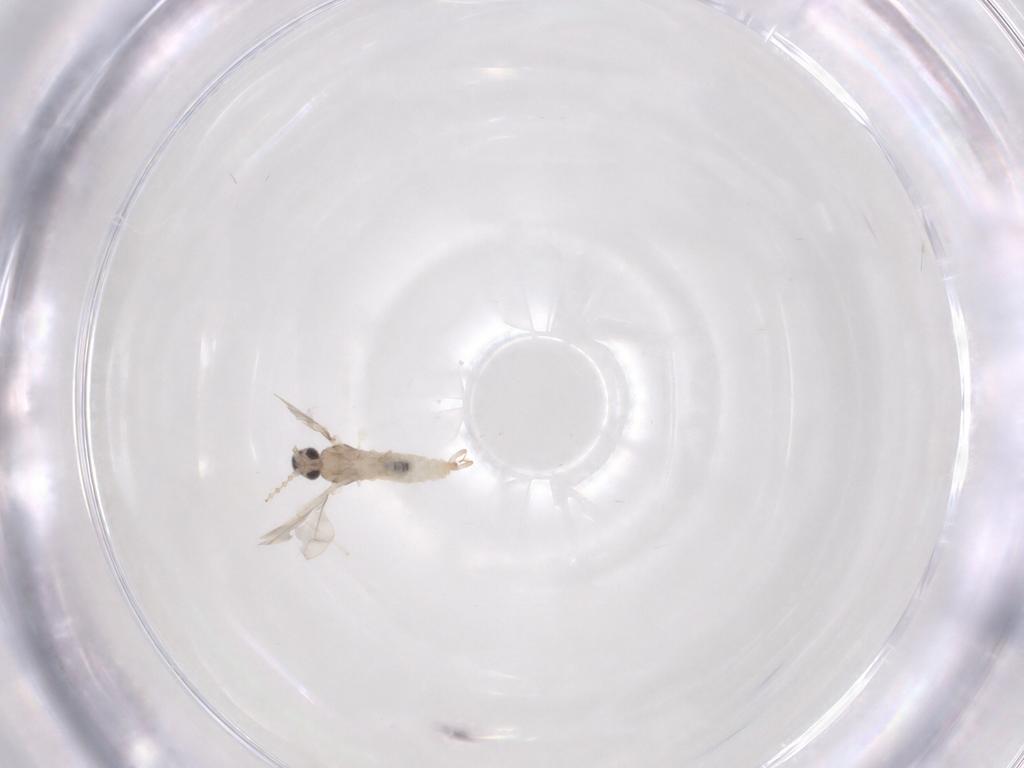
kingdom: Animalia
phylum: Arthropoda
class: Insecta
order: Diptera
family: Cecidomyiidae
